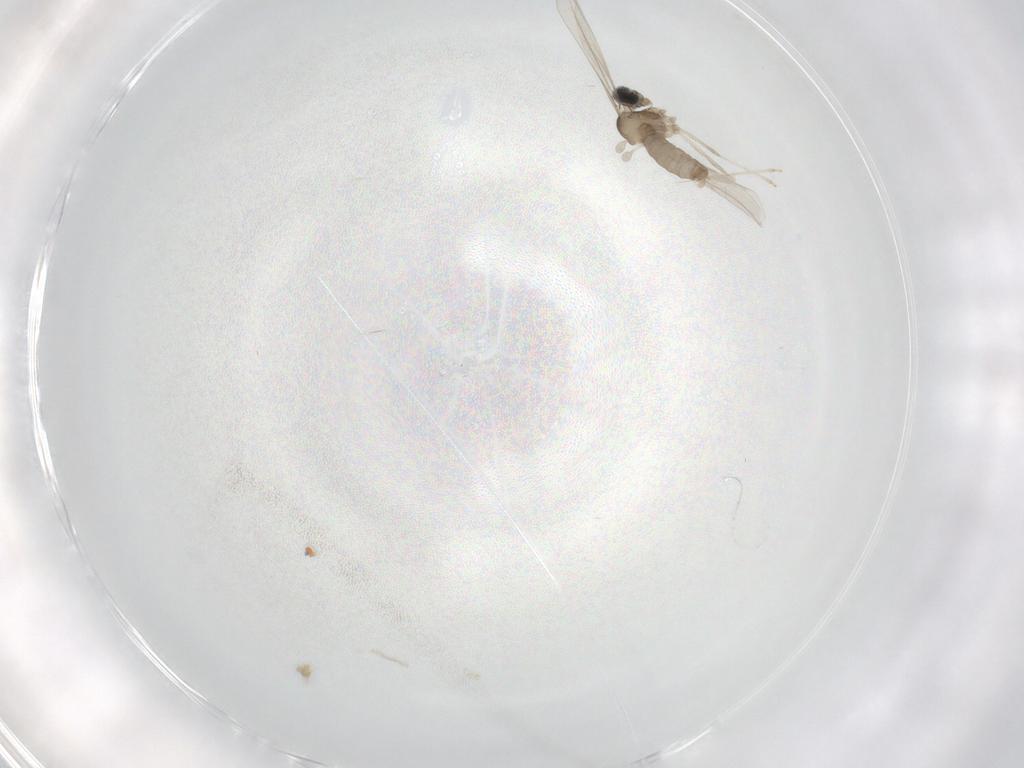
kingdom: Animalia
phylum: Arthropoda
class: Insecta
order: Diptera
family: Cecidomyiidae
